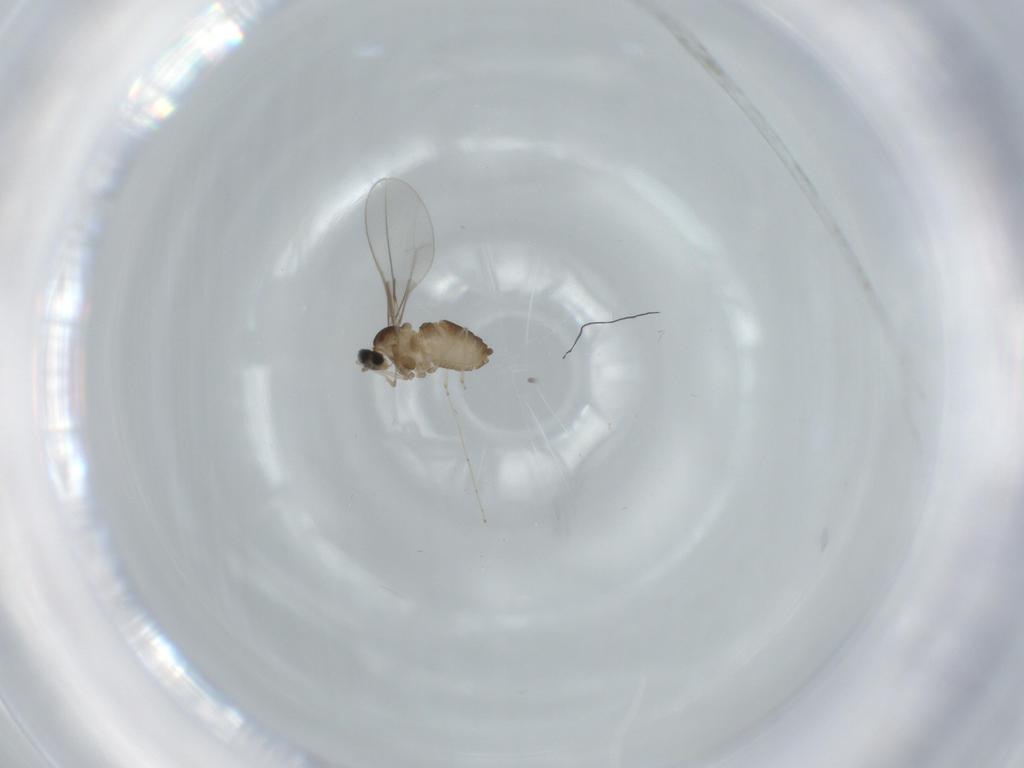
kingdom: Animalia
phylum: Arthropoda
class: Insecta
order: Diptera
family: Cecidomyiidae
